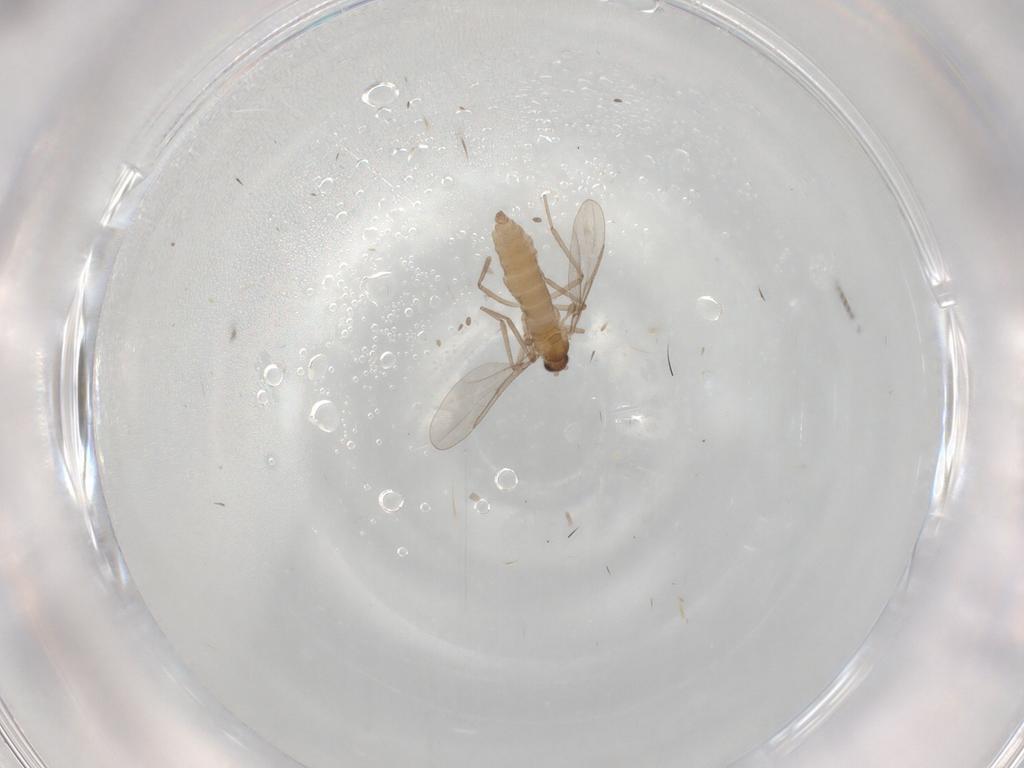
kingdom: Animalia
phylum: Arthropoda
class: Insecta
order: Diptera
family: Ceratopogonidae
